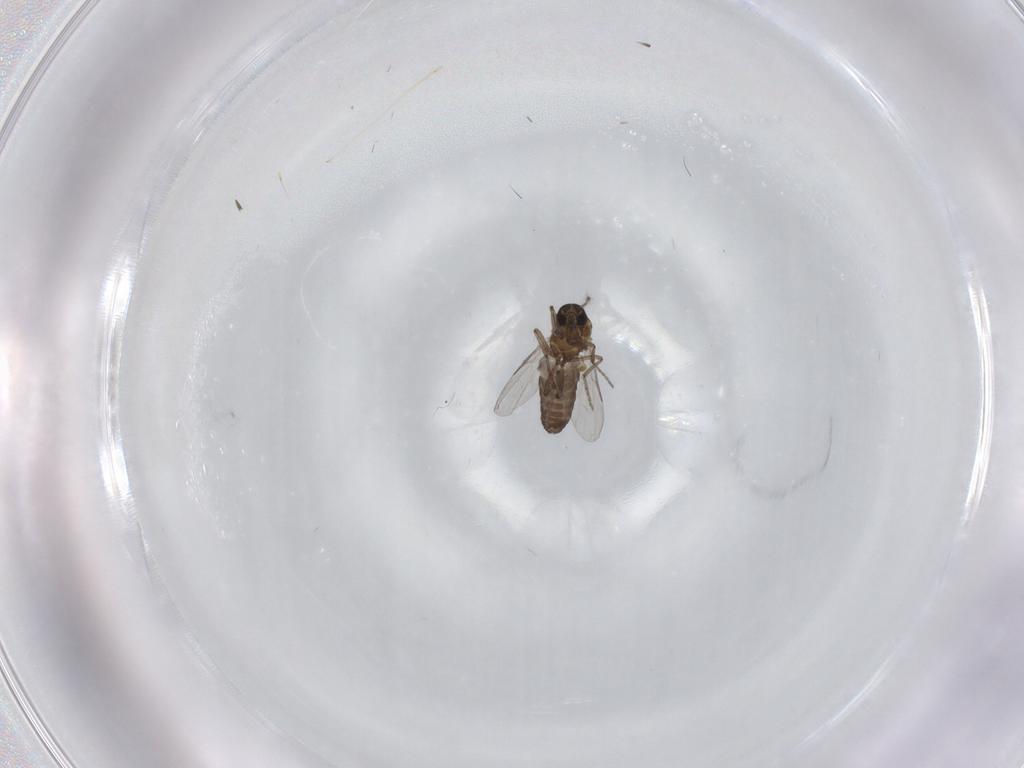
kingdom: Animalia
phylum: Arthropoda
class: Insecta
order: Diptera
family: Ceratopogonidae
